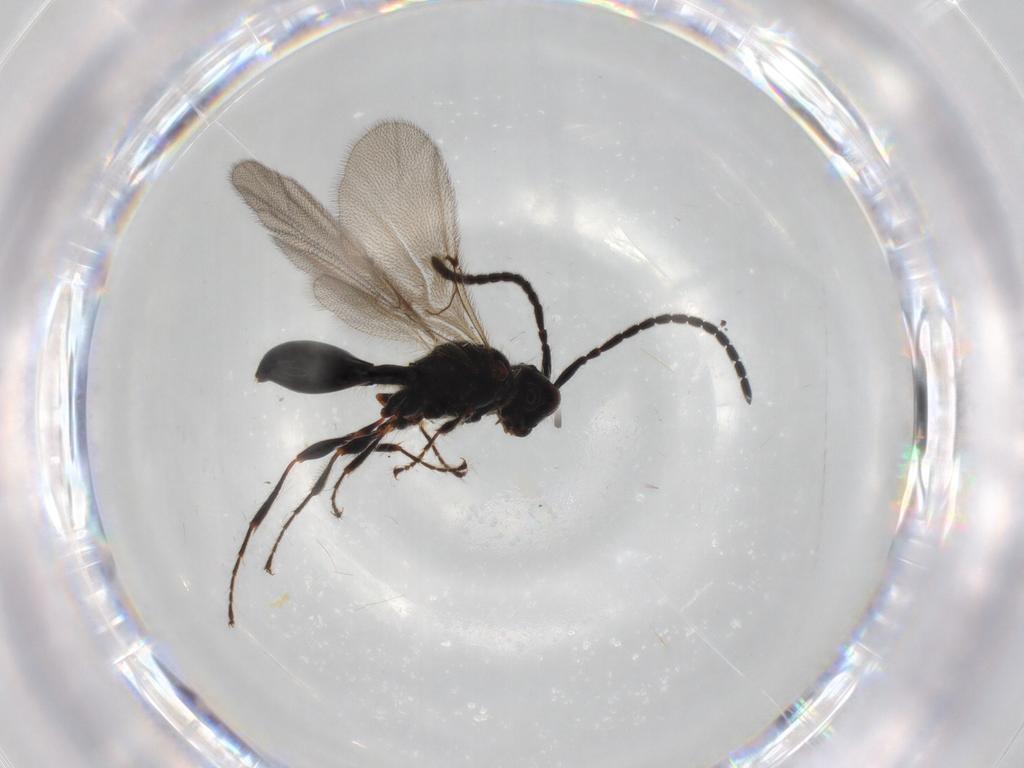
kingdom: Animalia
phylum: Arthropoda
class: Insecta
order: Hymenoptera
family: Diapriidae
